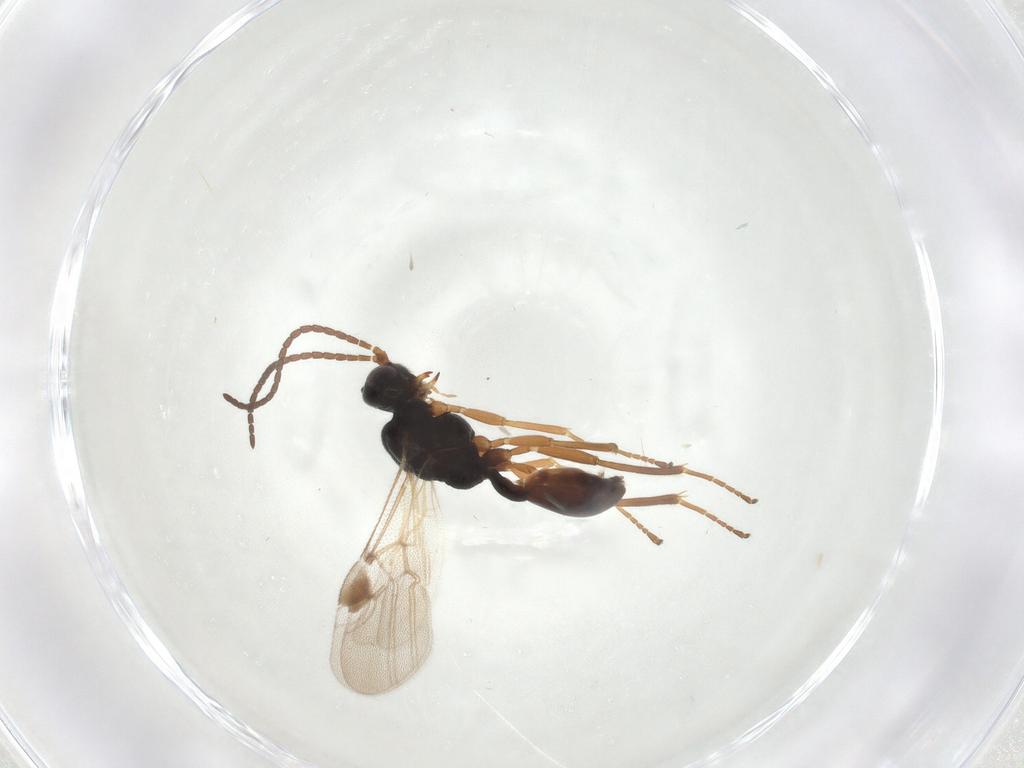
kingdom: Animalia
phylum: Arthropoda
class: Insecta
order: Hymenoptera
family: Braconidae
